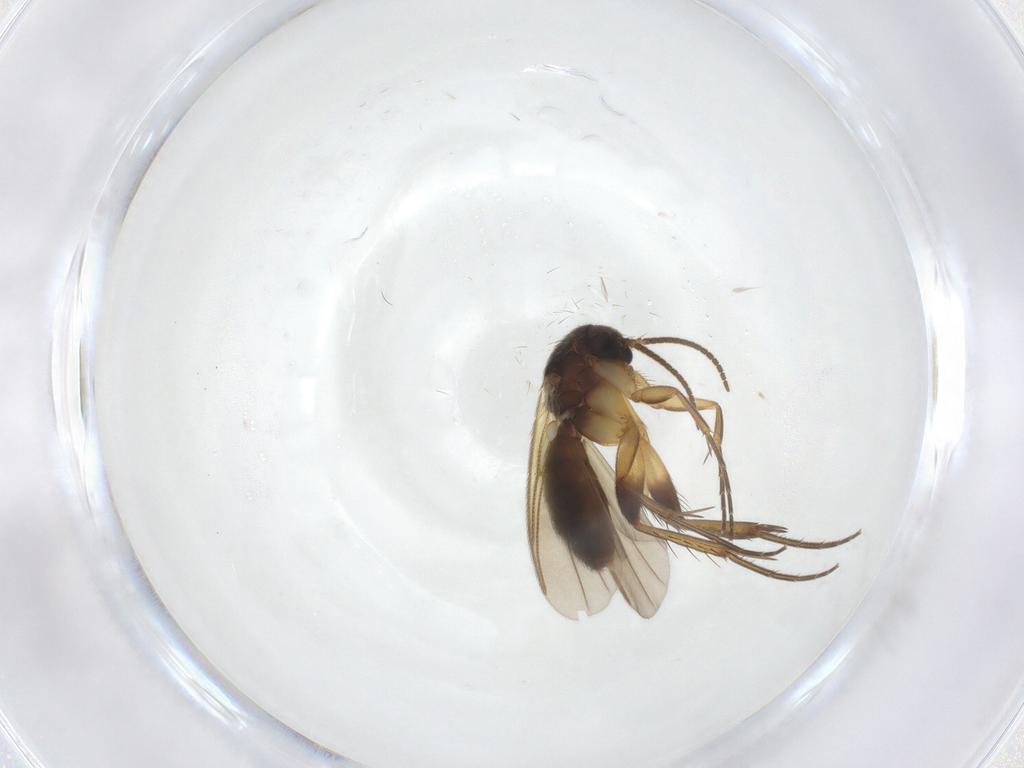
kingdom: Animalia
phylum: Arthropoda
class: Insecta
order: Diptera
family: Mycetophilidae
